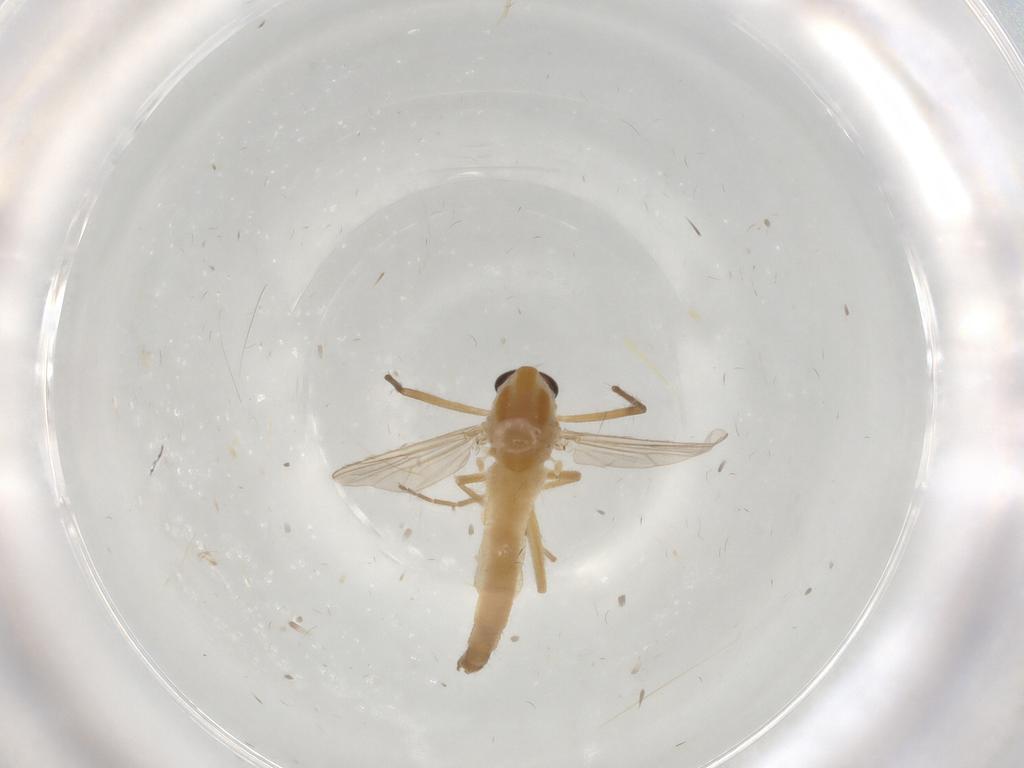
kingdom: Animalia
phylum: Arthropoda
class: Insecta
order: Diptera
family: Chironomidae
